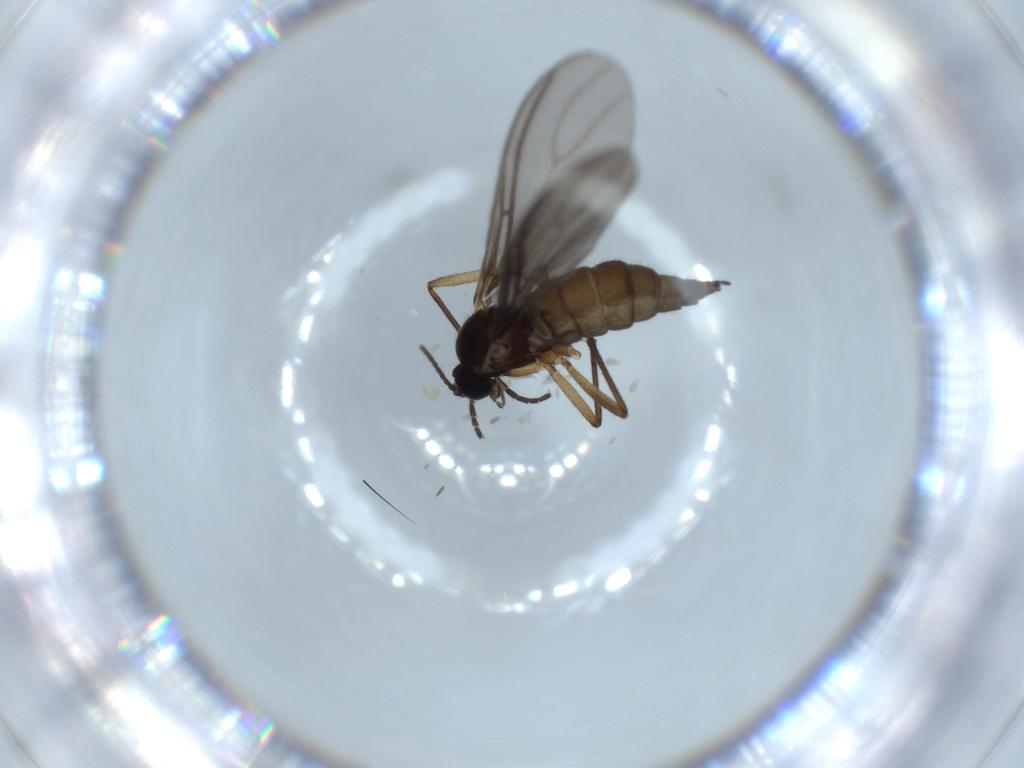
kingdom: Animalia
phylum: Arthropoda
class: Insecta
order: Diptera
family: Sciaridae
